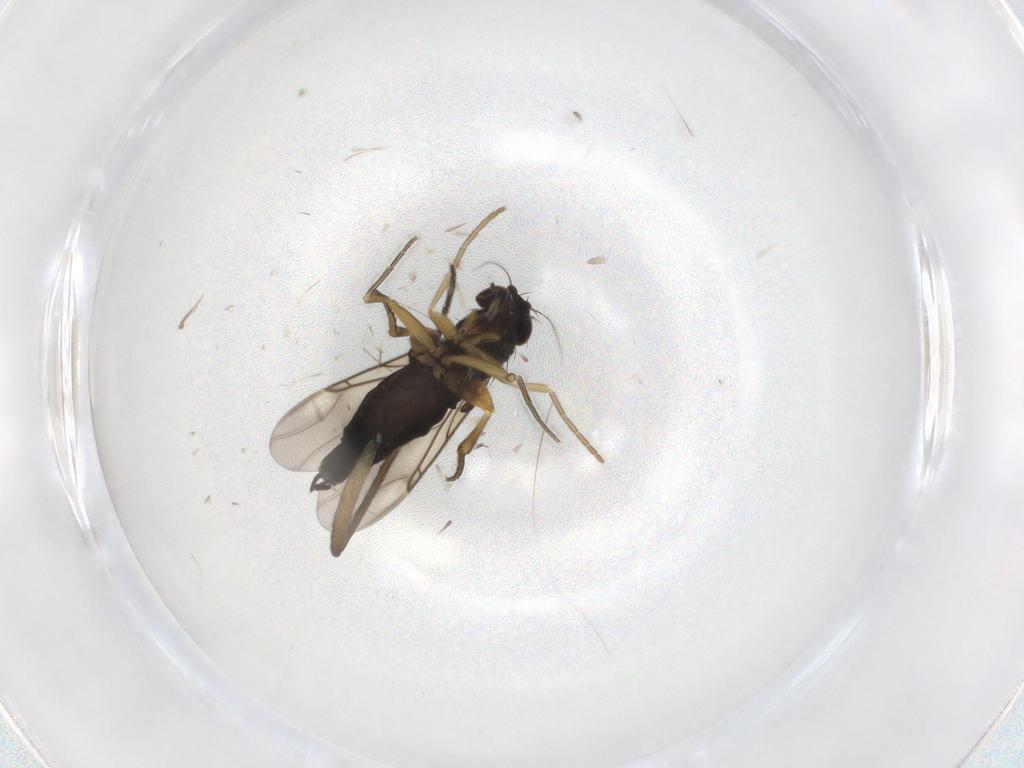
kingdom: Animalia
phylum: Arthropoda
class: Insecta
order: Diptera
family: Sciaridae
